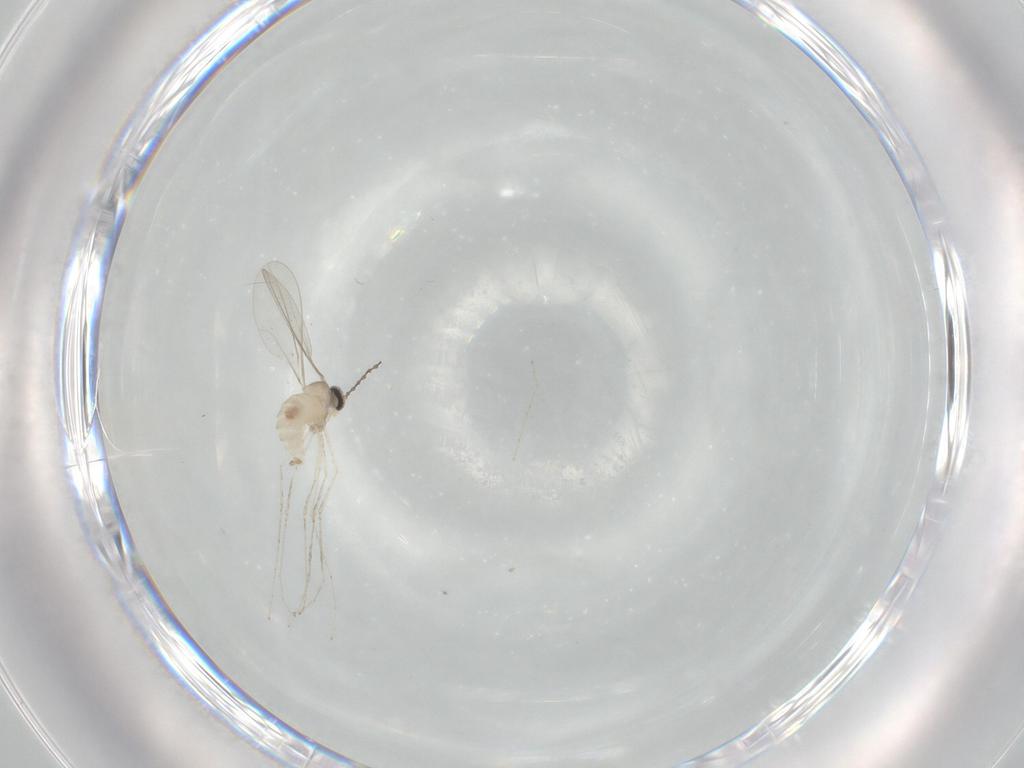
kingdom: Animalia
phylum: Arthropoda
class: Insecta
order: Diptera
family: Cecidomyiidae
